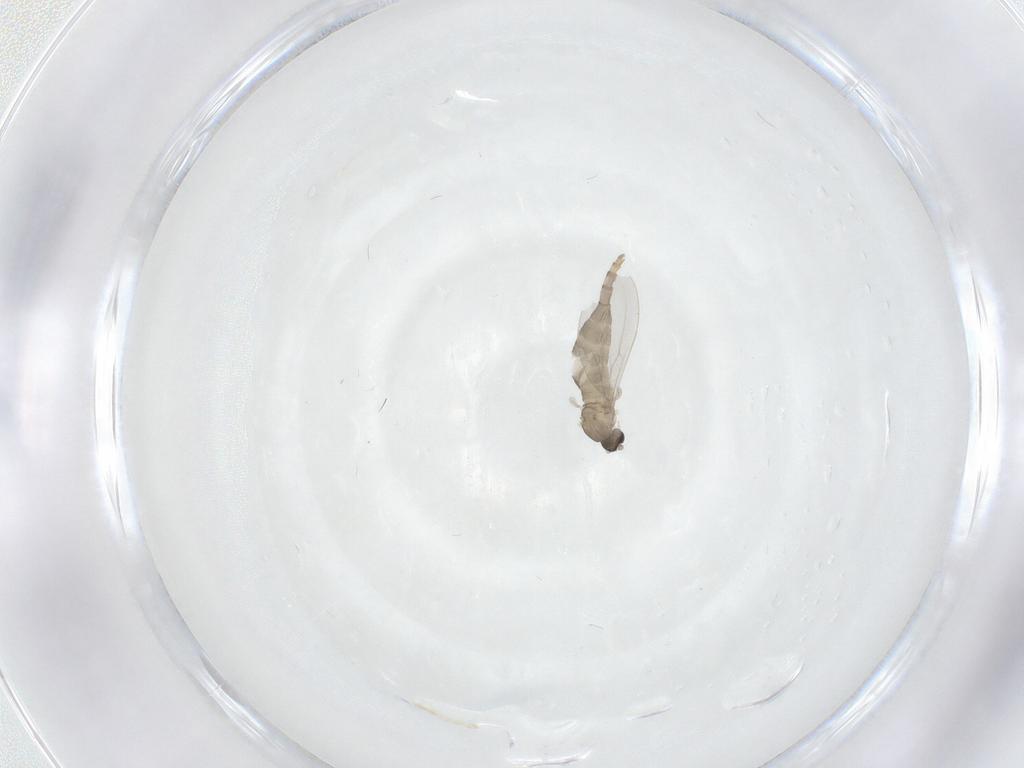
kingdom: Animalia
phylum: Arthropoda
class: Insecta
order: Diptera
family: Cecidomyiidae
